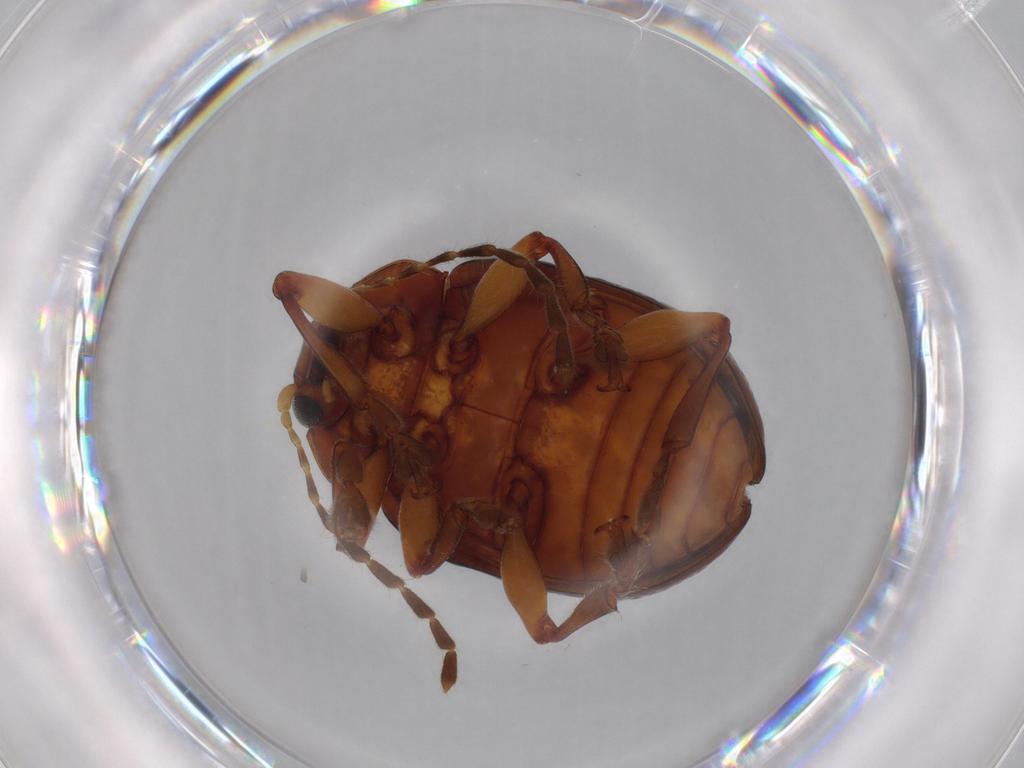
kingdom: Animalia
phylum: Arthropoda
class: Insecta
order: Coleoptera
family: Chrysomelidae
